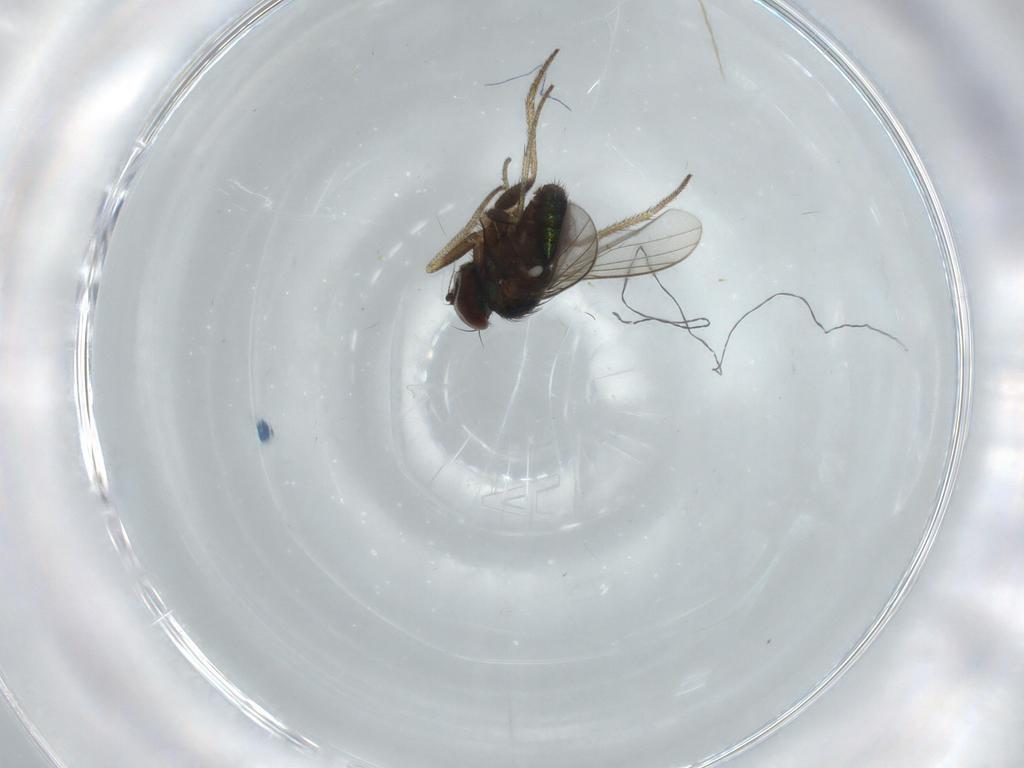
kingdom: Animalia
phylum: Arthropoda
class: Insecta
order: Diptera
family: Dolichopodidae
